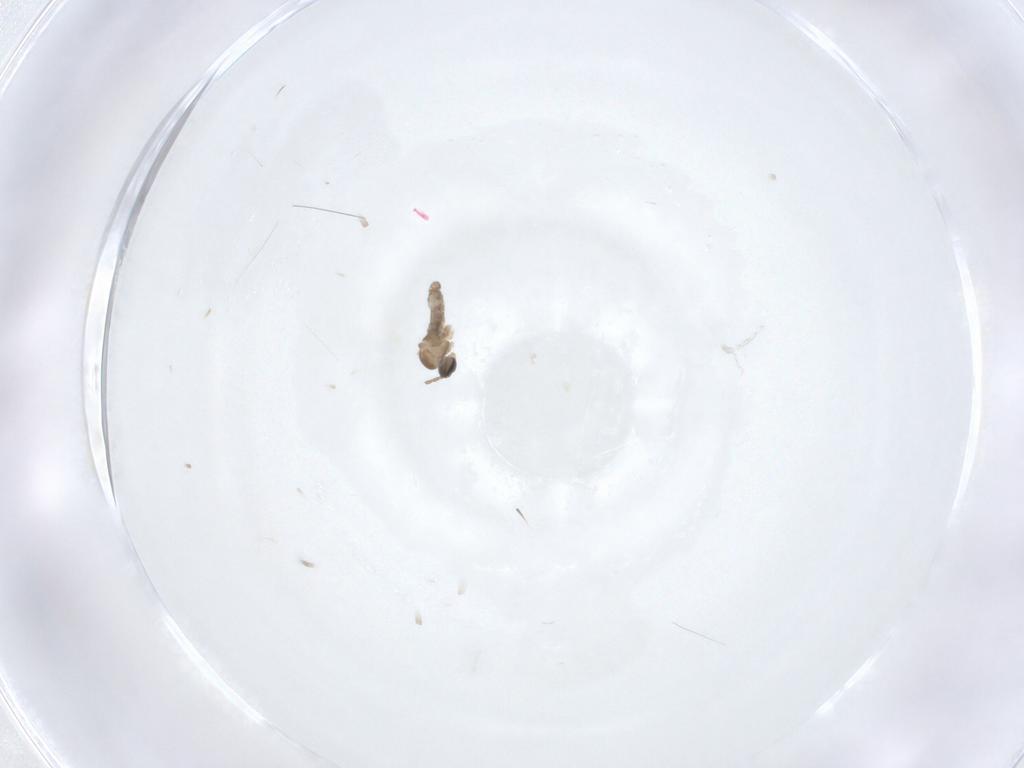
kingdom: Animalia
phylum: Arthropoda
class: Insecta
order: Diptera
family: Cecidomyiidae
